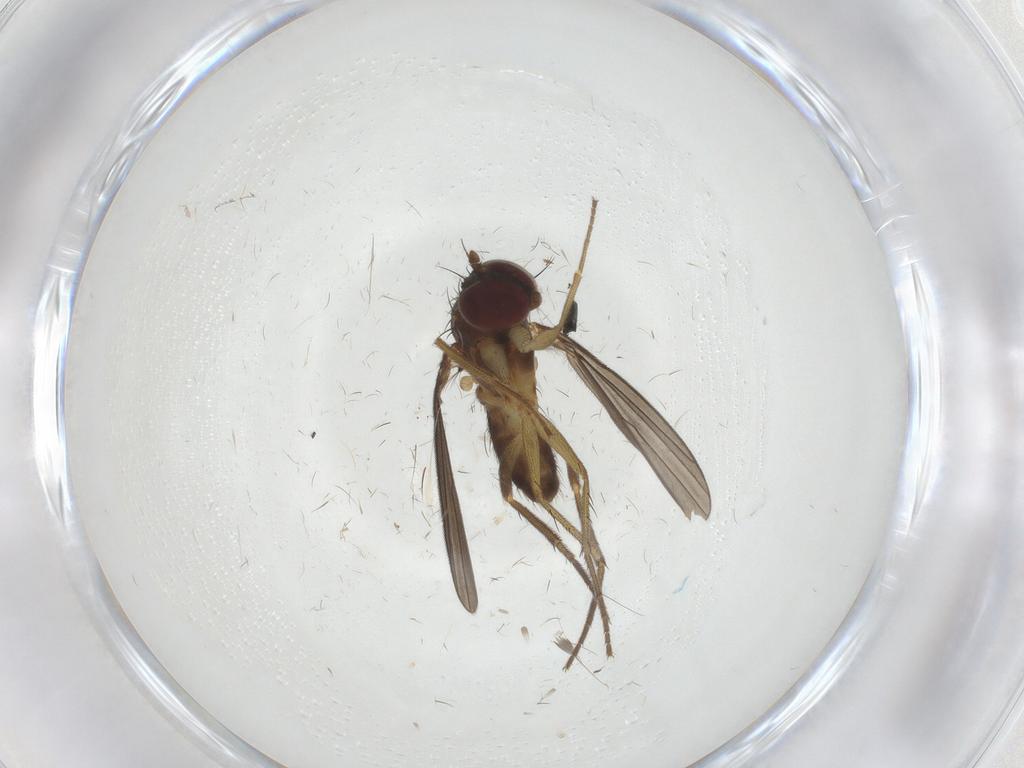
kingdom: Animalia
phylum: Arthropoda
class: Insecta
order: Diptera
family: Dolichopodidae
